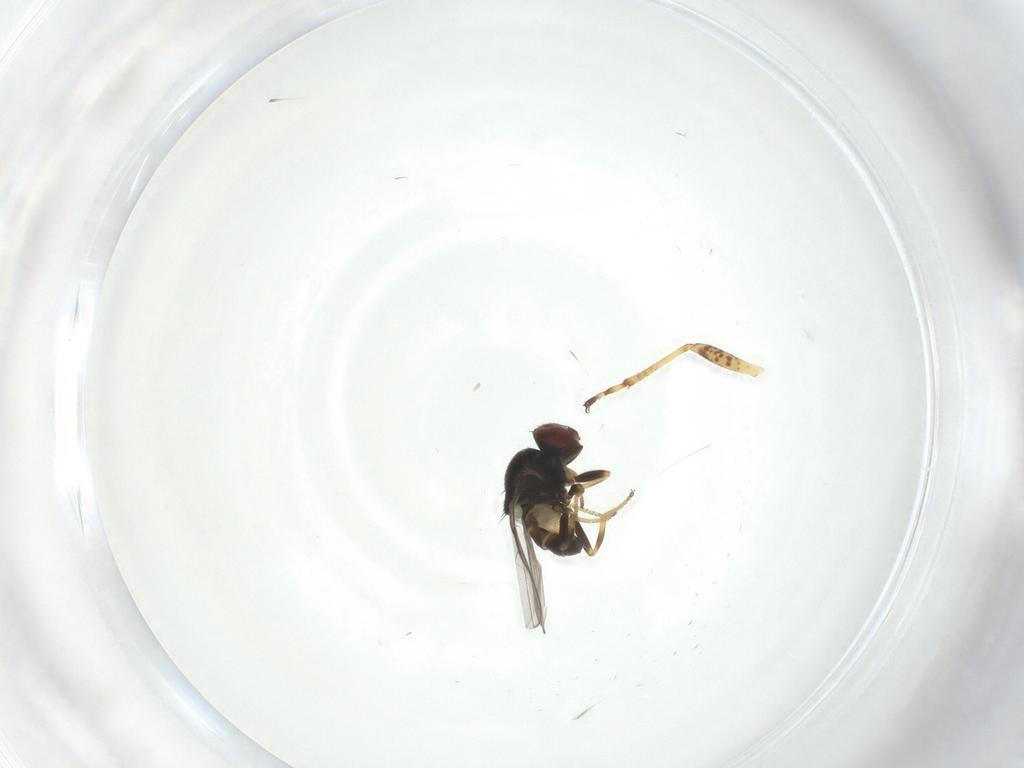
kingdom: Animalia
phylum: Arthropoda
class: Insecta
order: Diptera
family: Chloropidae
